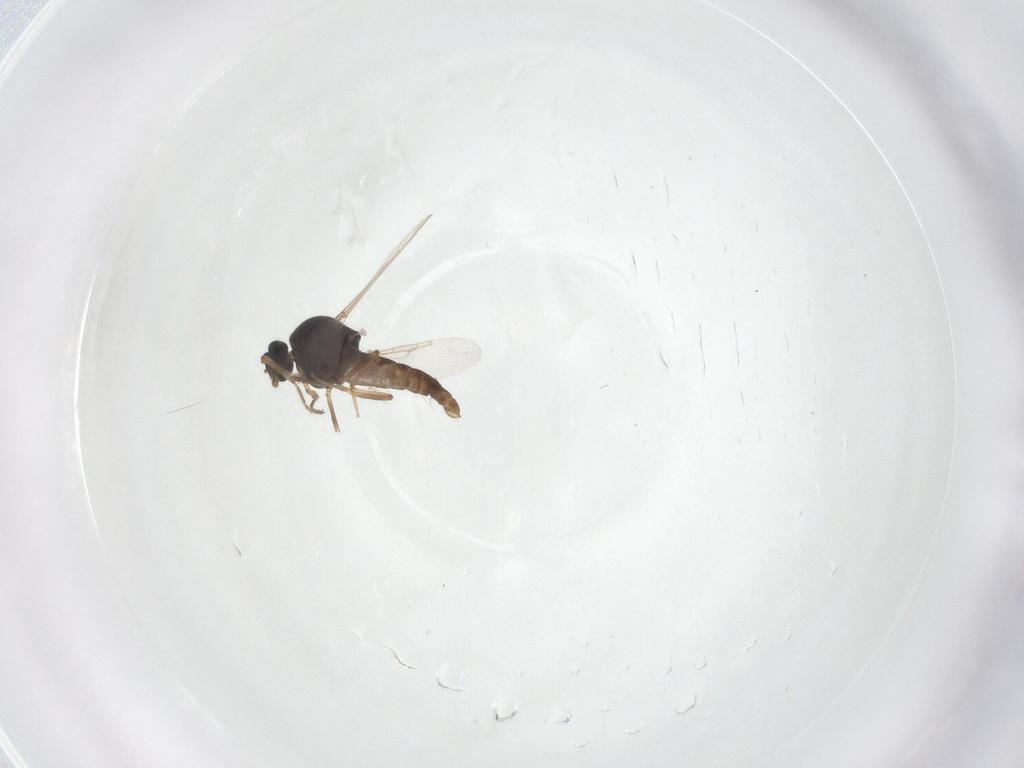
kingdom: Animalia
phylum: Arthropoda
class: Insecta
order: Diptera
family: Ceratopogonidae
